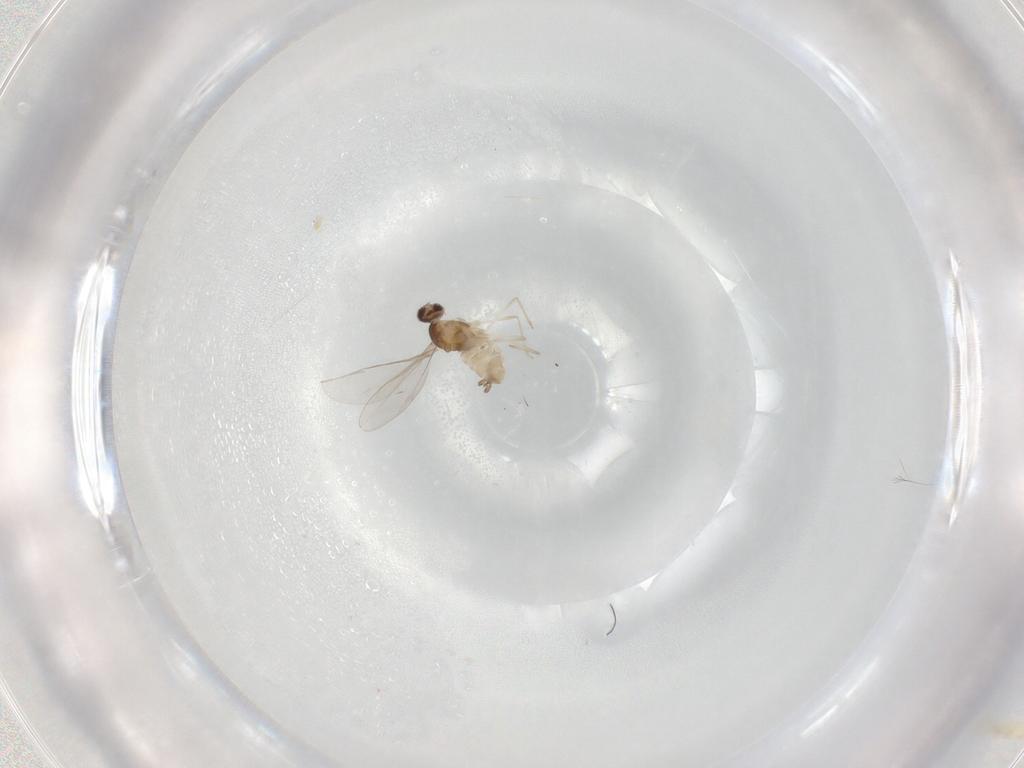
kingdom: Animalia
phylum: Arthropoda
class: Insecta
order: Diptera
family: Cecidomyiidae
